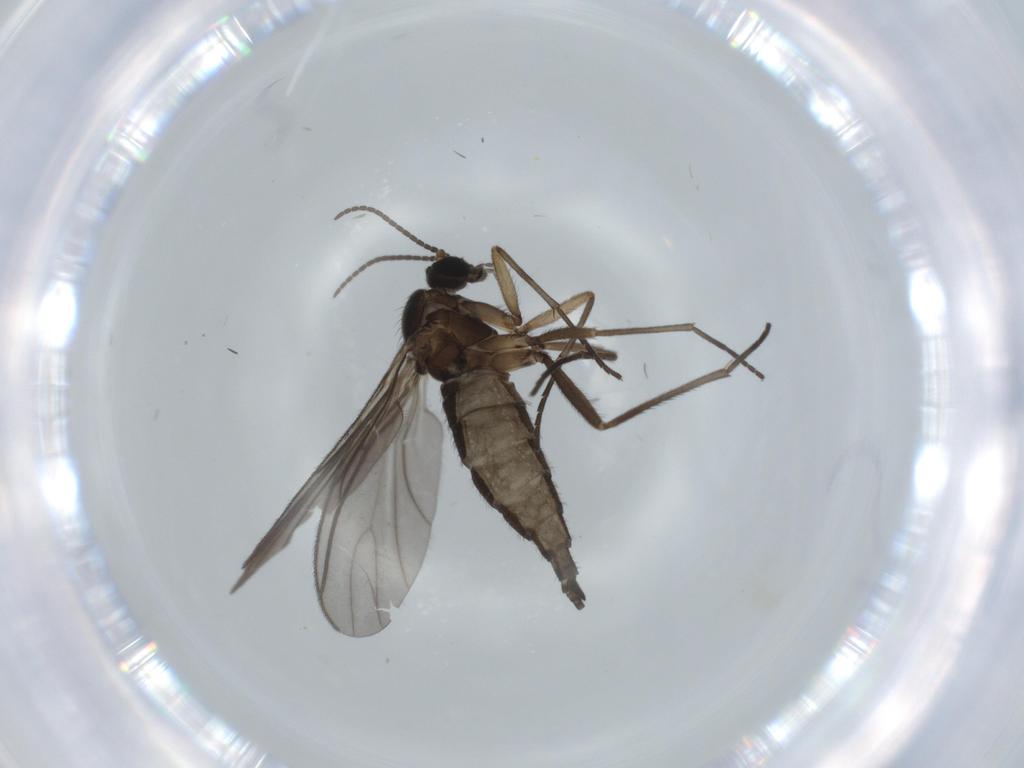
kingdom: Animalia
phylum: Arthropoda
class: Insecta
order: Diptera
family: Sciaridae
